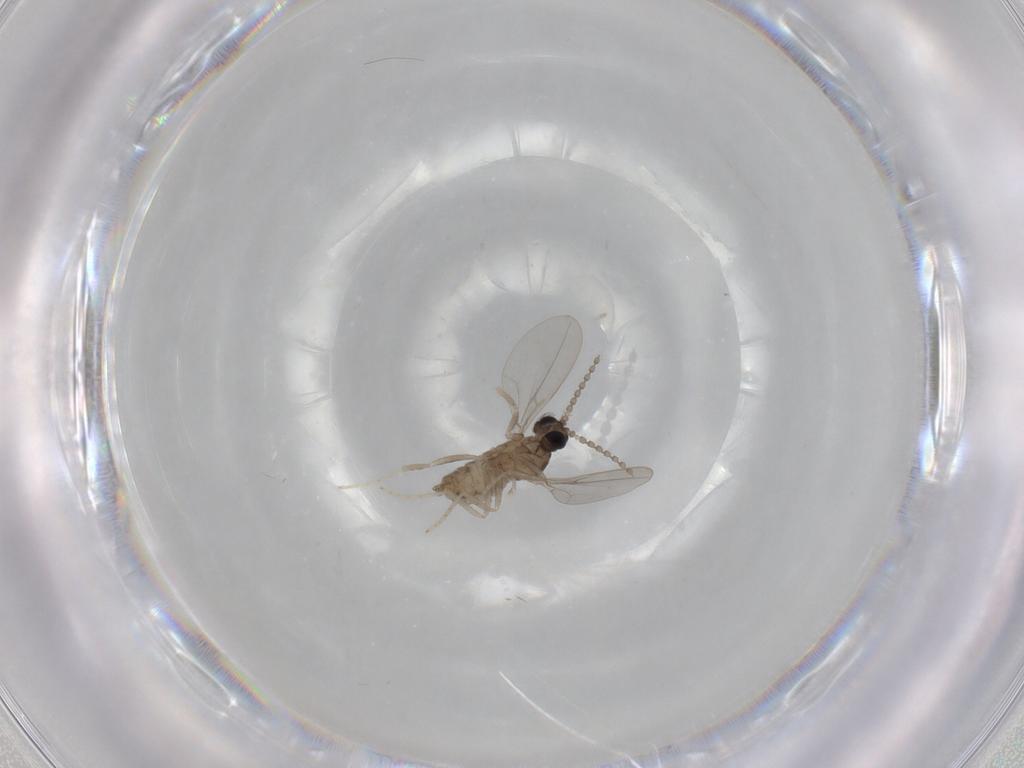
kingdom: Animalia
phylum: Arthropoda
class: Insecta
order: Diptera
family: Cecidomyiidae
